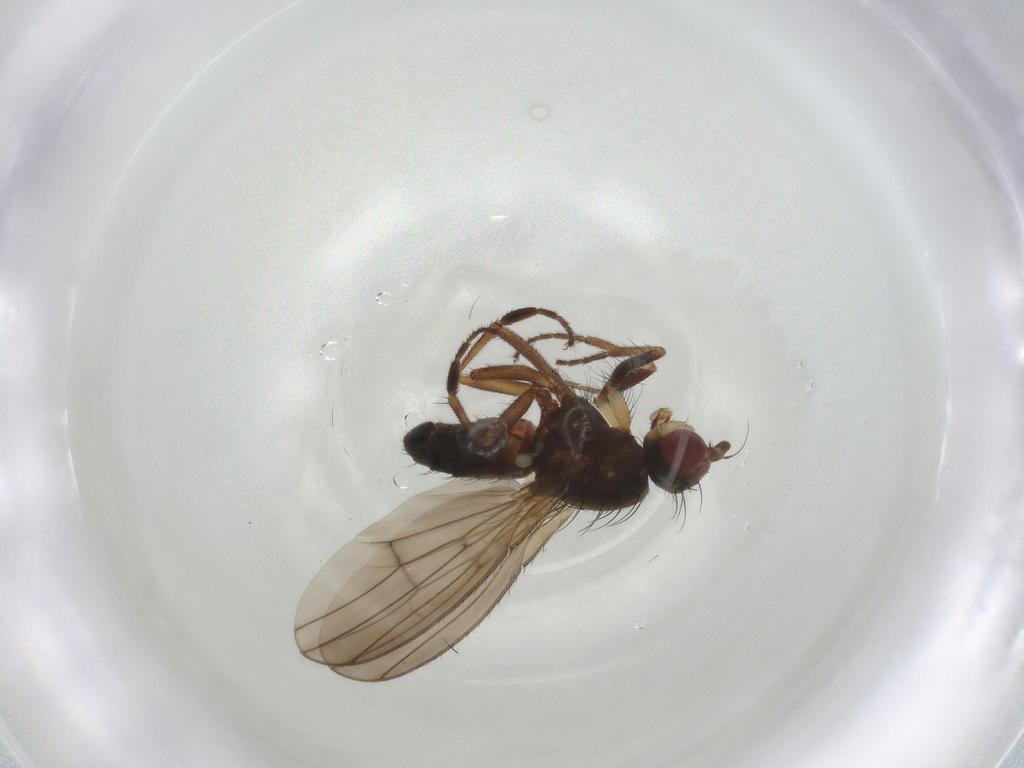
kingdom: Animalia
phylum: Arthropoda
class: Insecta
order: Diptera
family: Heleomyzidae
